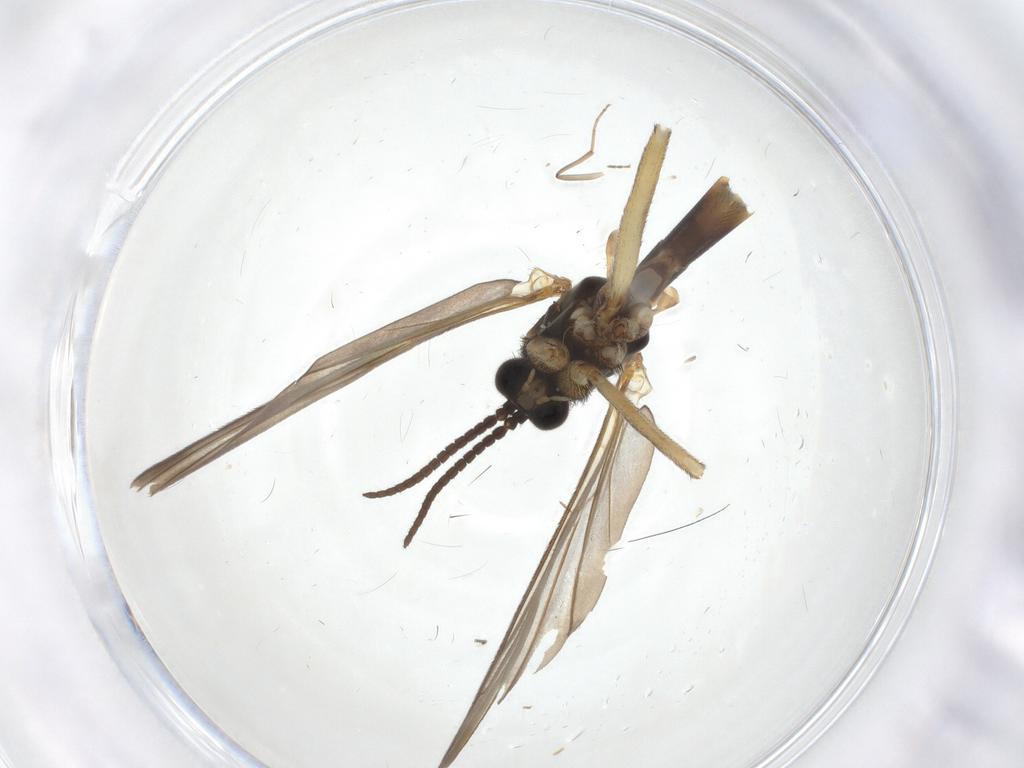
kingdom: Animalia
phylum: Arthropoda
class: Insecta
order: Diptera
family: Keroplatidae
